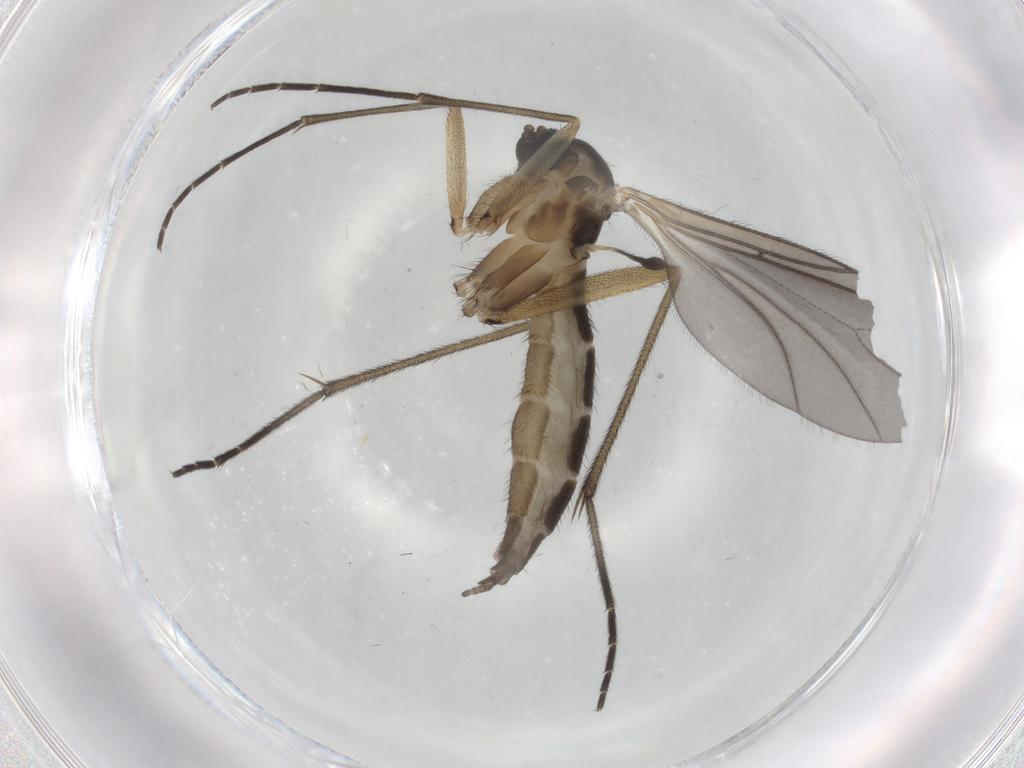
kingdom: Animalia
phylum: Arthropoda
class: Insecta
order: Diptera
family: Sciaridae
